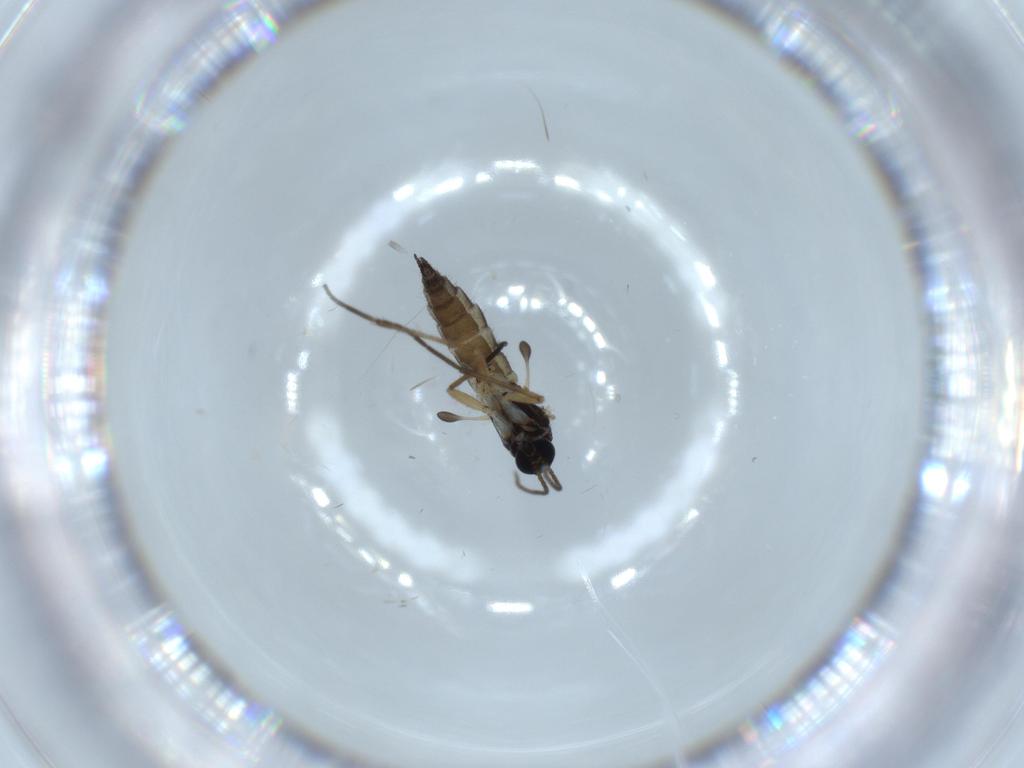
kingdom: Animalia
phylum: Arthropoda
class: Insecta
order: Diptera
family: Sciaridae
